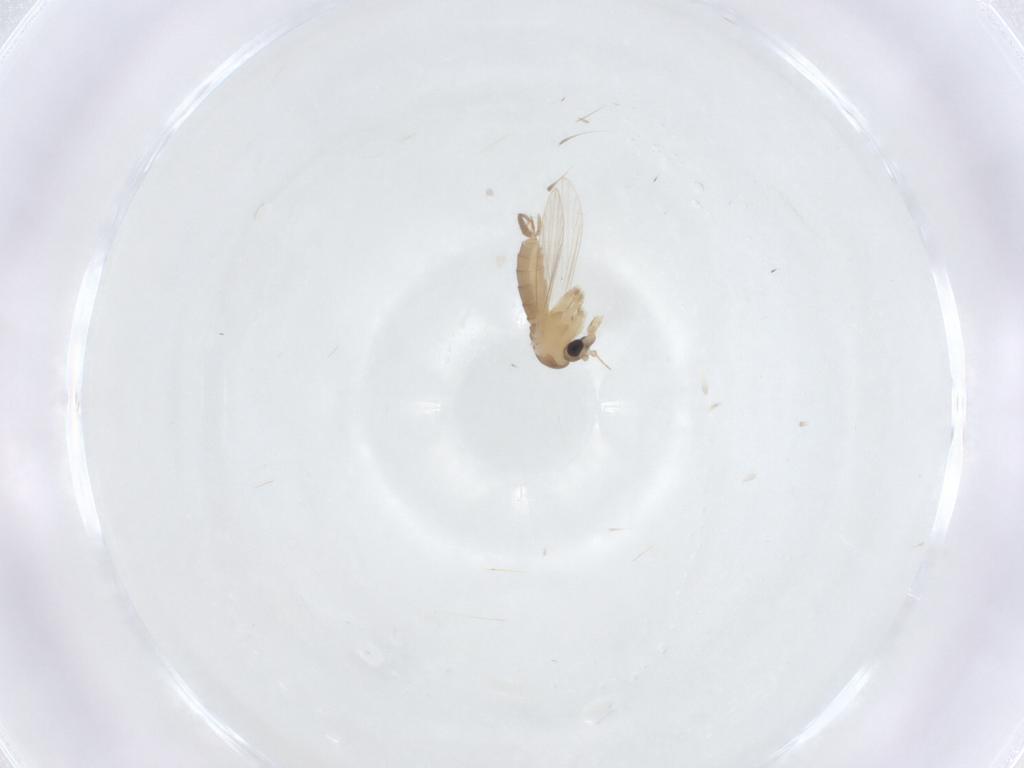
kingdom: Animalia
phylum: Arthropoda
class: Insecta
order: Diptera
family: Psychodidae
